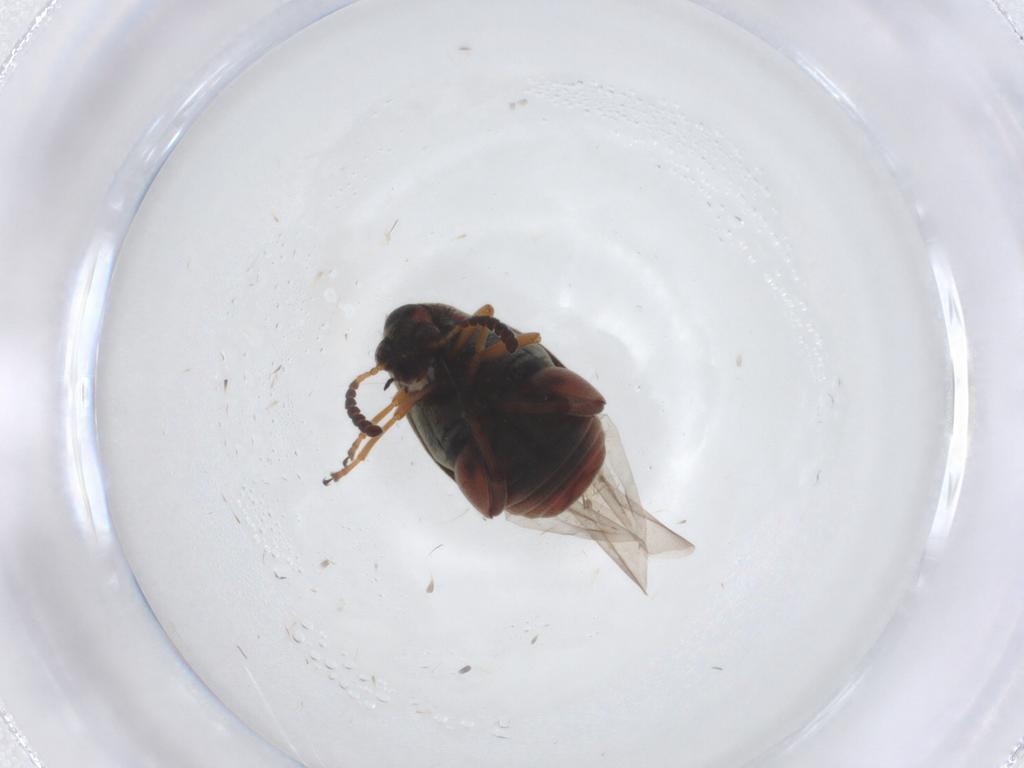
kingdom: Animalia
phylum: Arthropoda
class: Insecta
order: Coleoptera
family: Chrysomelidae
